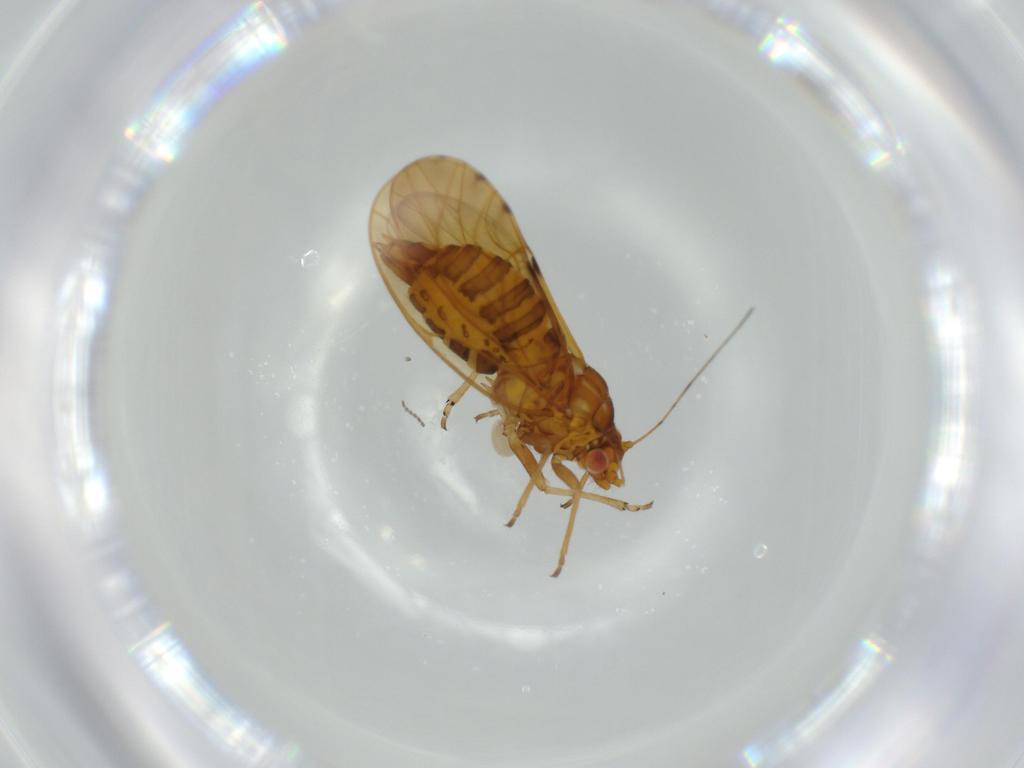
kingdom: Animalia
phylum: Arthropoda
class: Insecta
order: Hemiptera
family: Psylloidea_incertae_sedis
